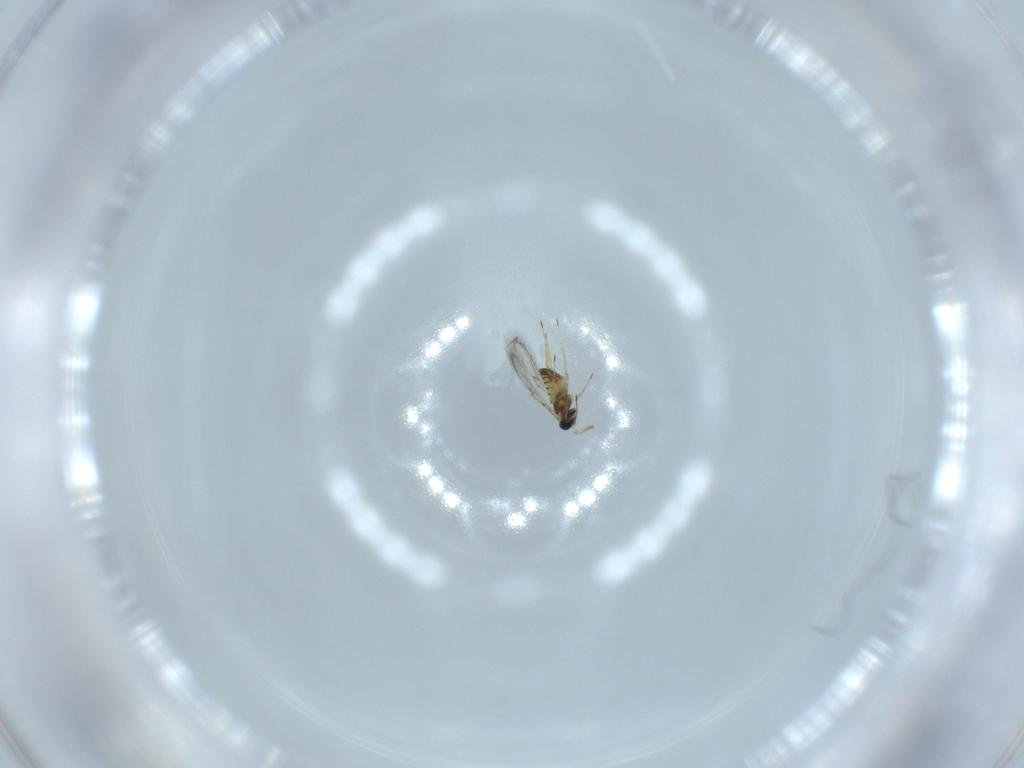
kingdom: Animalia
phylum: Arthropoda
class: Insecta
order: Hymenoptera
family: Trichogrammatidae
